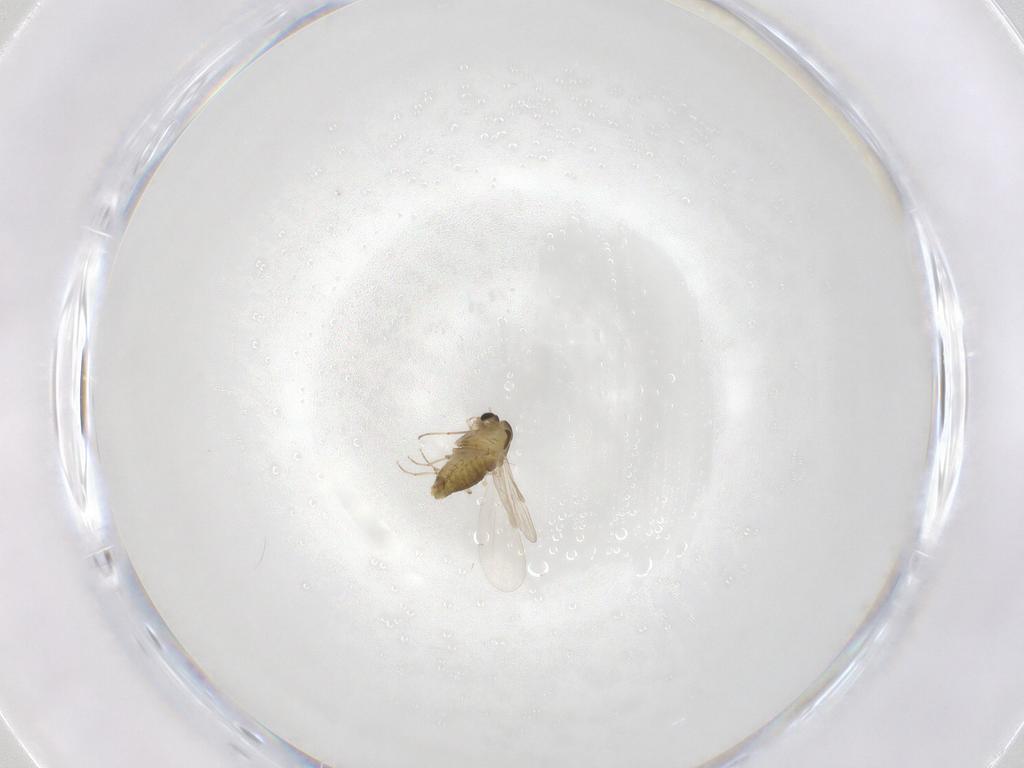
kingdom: Animalia
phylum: Arthropoda
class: Insecta
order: Diptera
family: Chironomidae
